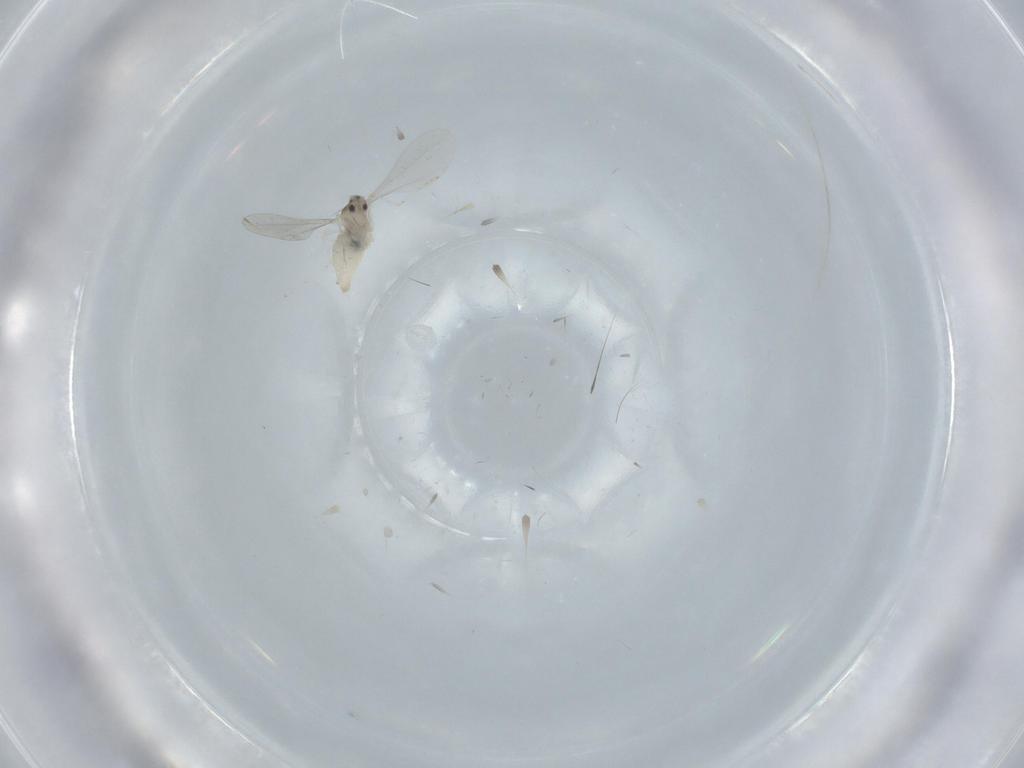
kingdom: Animalia
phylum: Arthropoda
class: Insecta
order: Diptera
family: Cecidomyiidae
